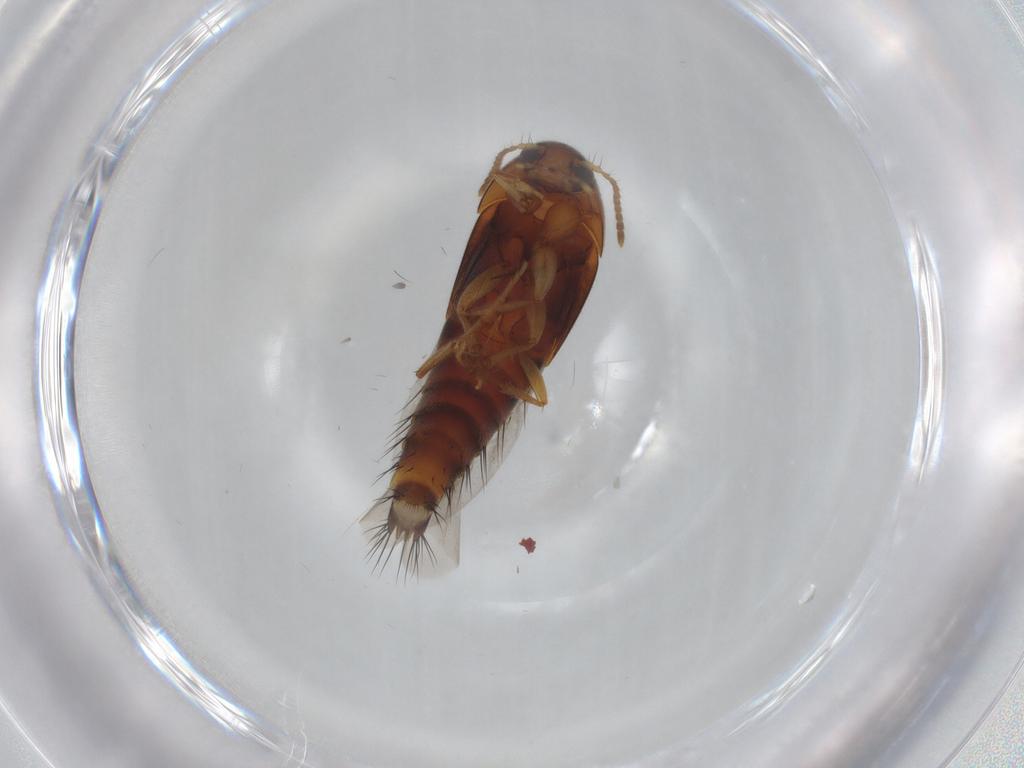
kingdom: Animalia
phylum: Arthropoda
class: Insecta
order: Coleoptera
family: Staphylinidae
